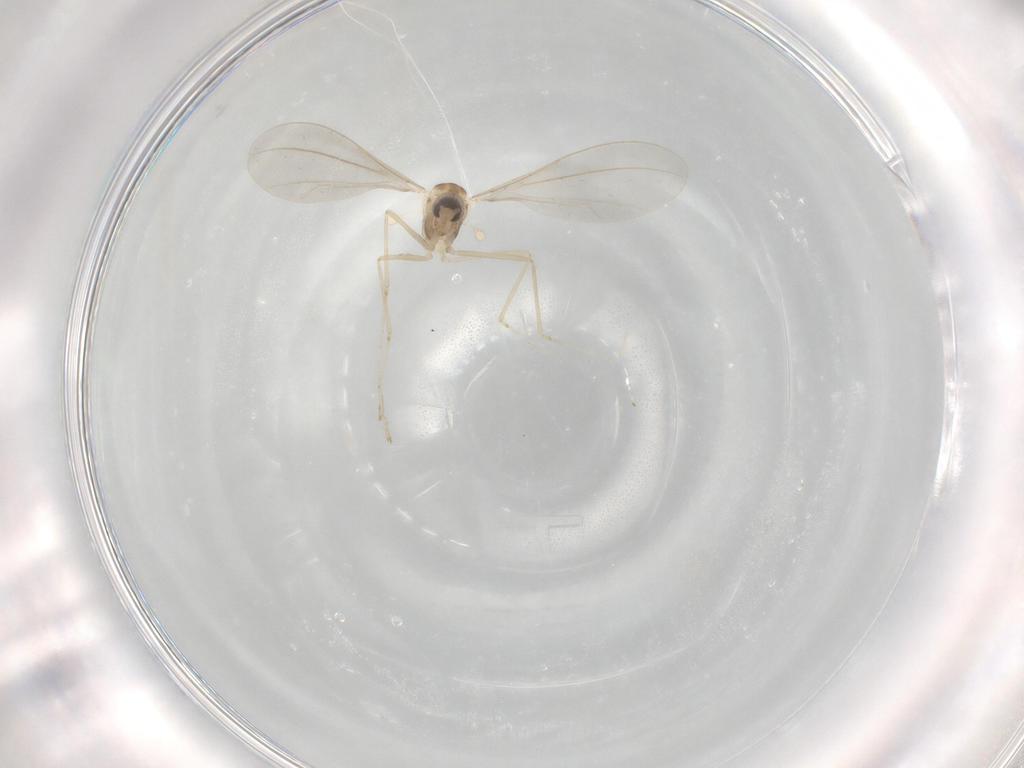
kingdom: Animalia
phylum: Arthropoda
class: Insecta
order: Diptera
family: Cecidomyiidae
